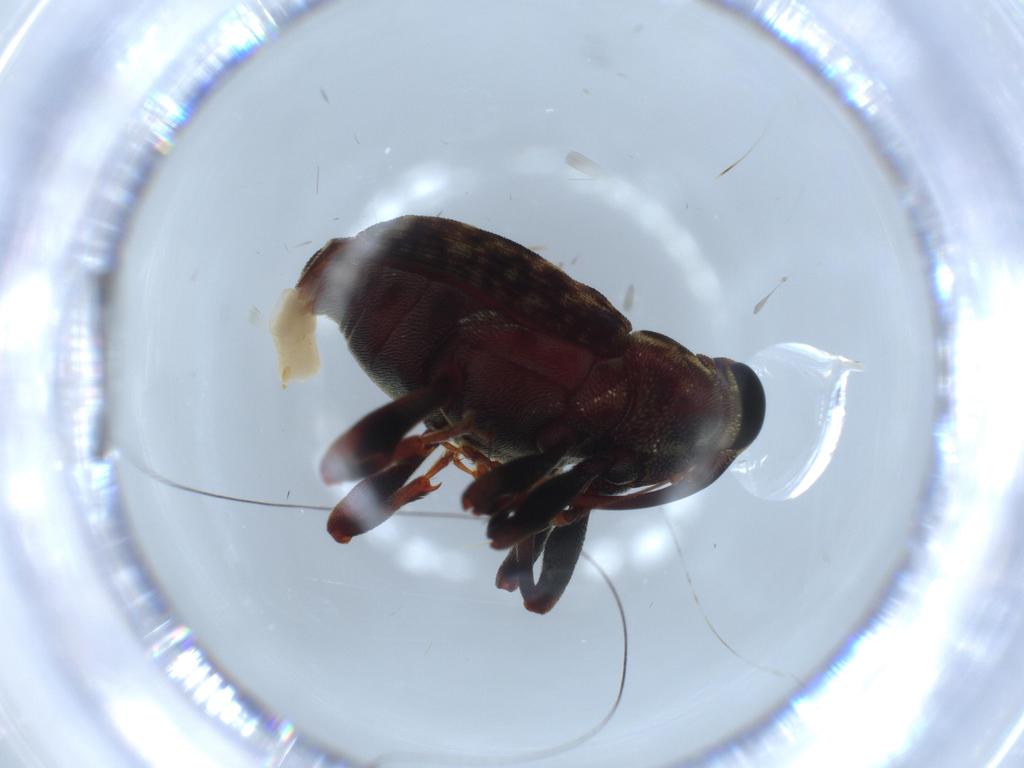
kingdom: Animalia
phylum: Arthropoda
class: Insecta
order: Coleoptera
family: Curculionidae
